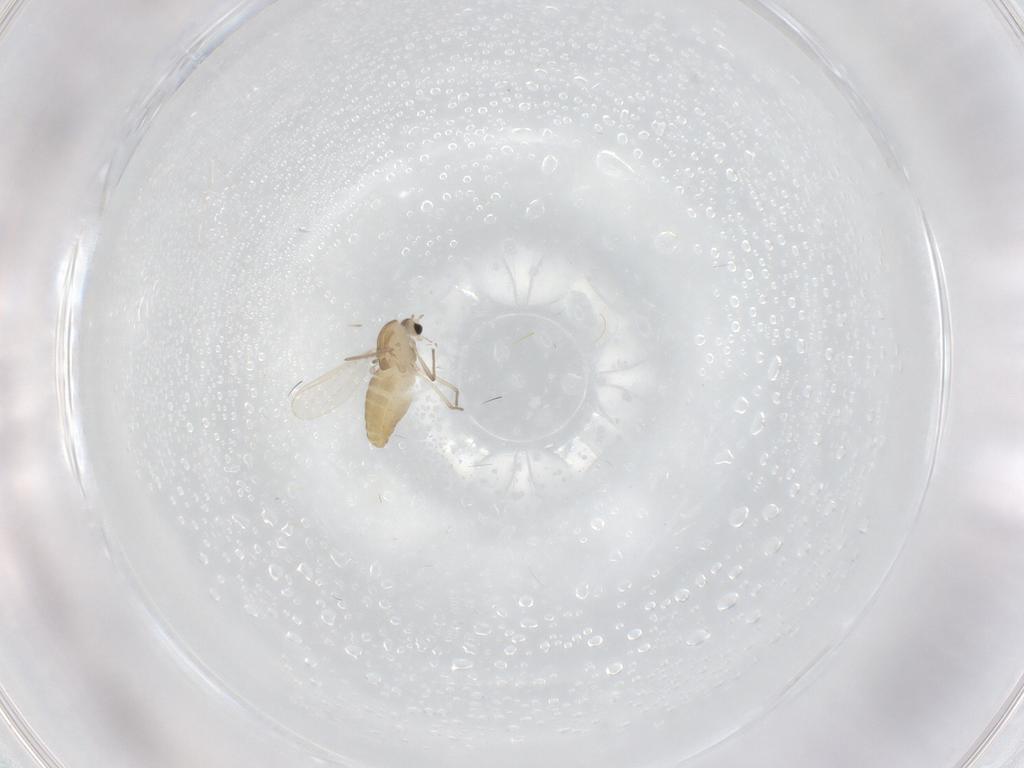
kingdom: Animalia
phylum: Arthropoda
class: Insecta
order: Diptera
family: Chironomidae
